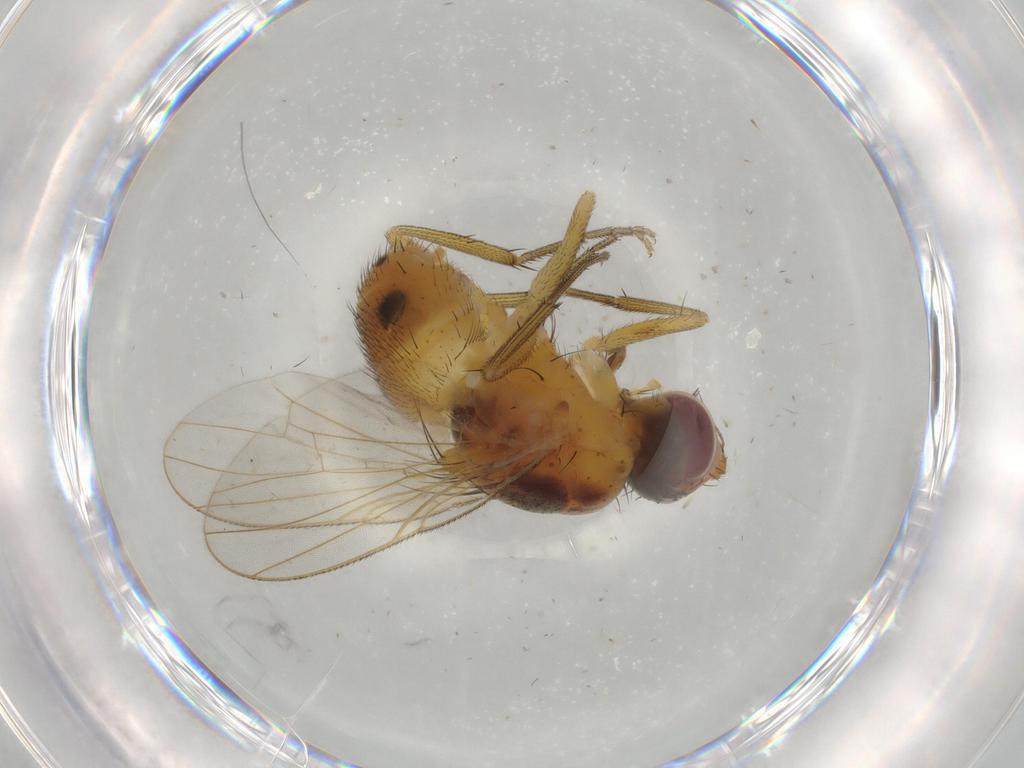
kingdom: Animalia
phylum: Arthropoda
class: Insecta
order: Diptera
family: Muscidae
